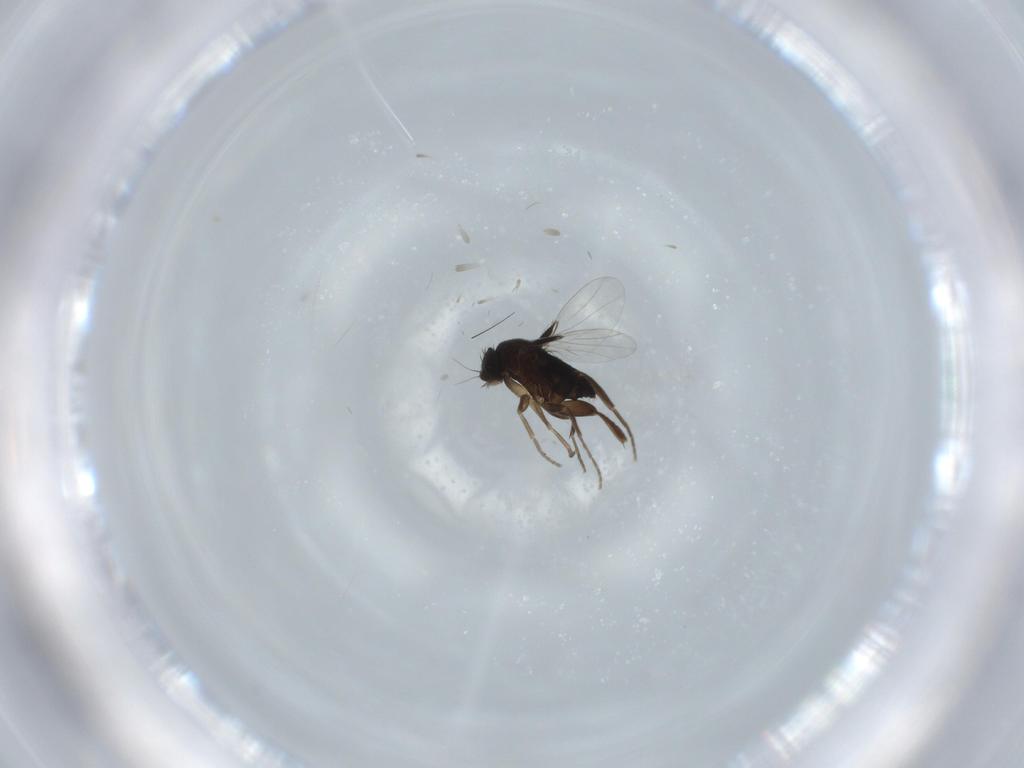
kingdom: Animalia
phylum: Arthropoda
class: Insecta
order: Diptera
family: Phoridae
